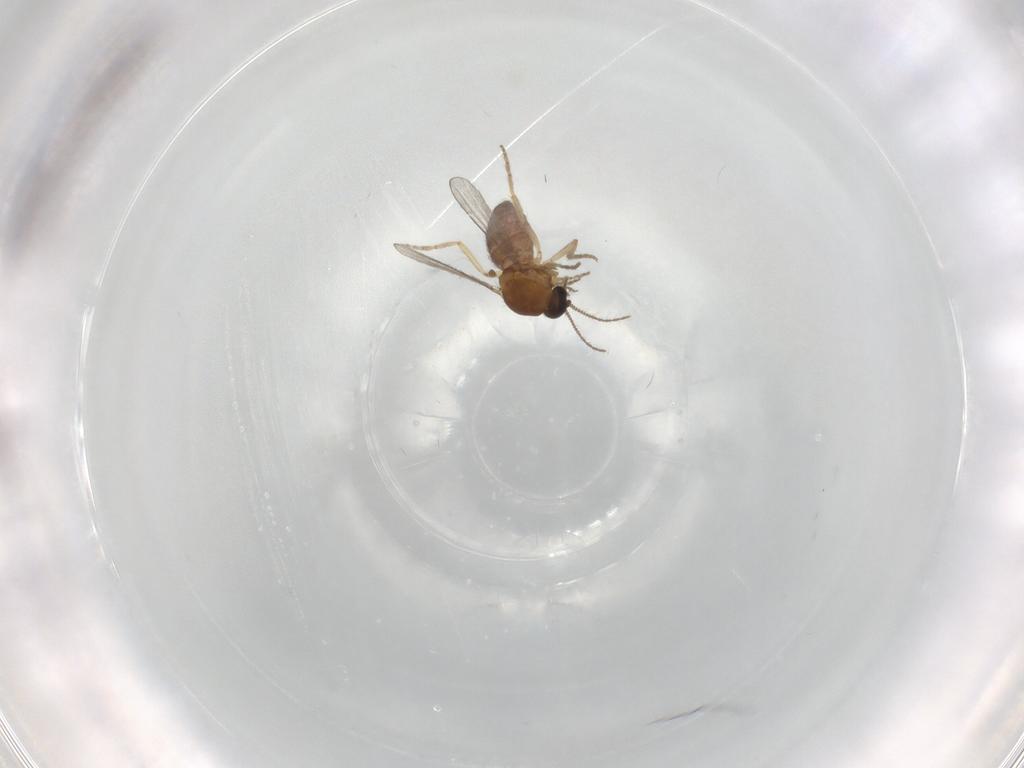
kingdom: Animalia
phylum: Arthropoda
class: Insecta
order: Diptera
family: Ceratopogonidae
